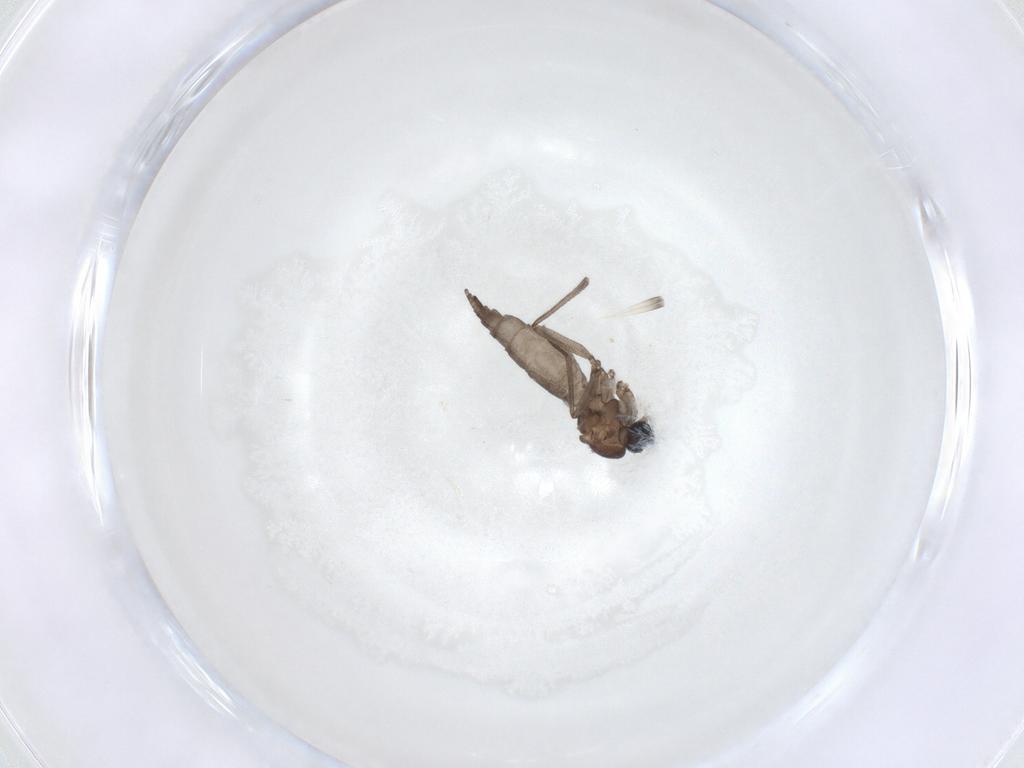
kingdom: Animalia
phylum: Arthropoda
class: Insecta
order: Diptera
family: Sciaridae
